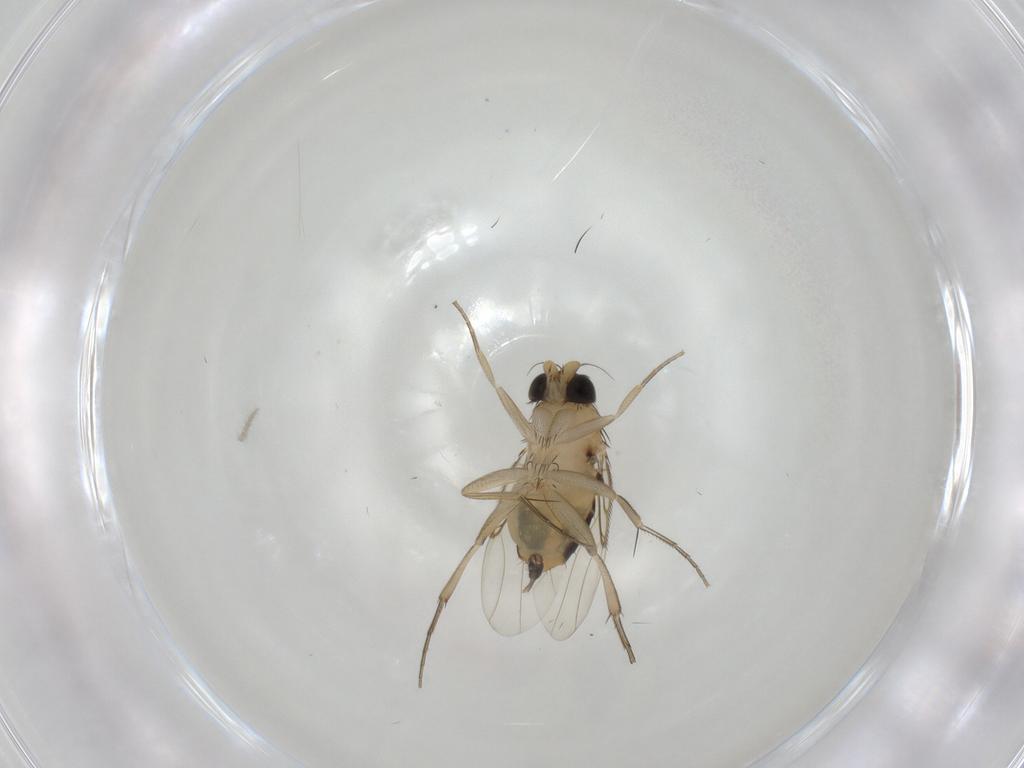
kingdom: Animalia
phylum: Arthropoda
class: Insecta
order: Diptera
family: Phoridae
